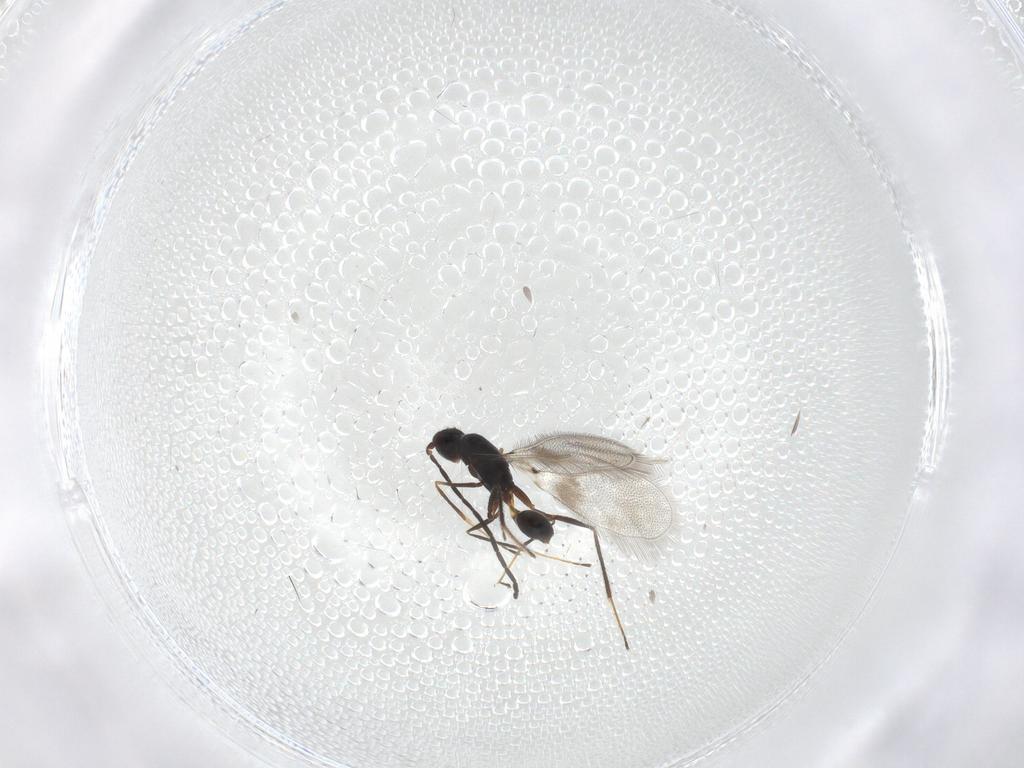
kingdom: Animalia
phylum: Arthropoda
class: Insecta
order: Hymenoptera
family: Mymaridae
